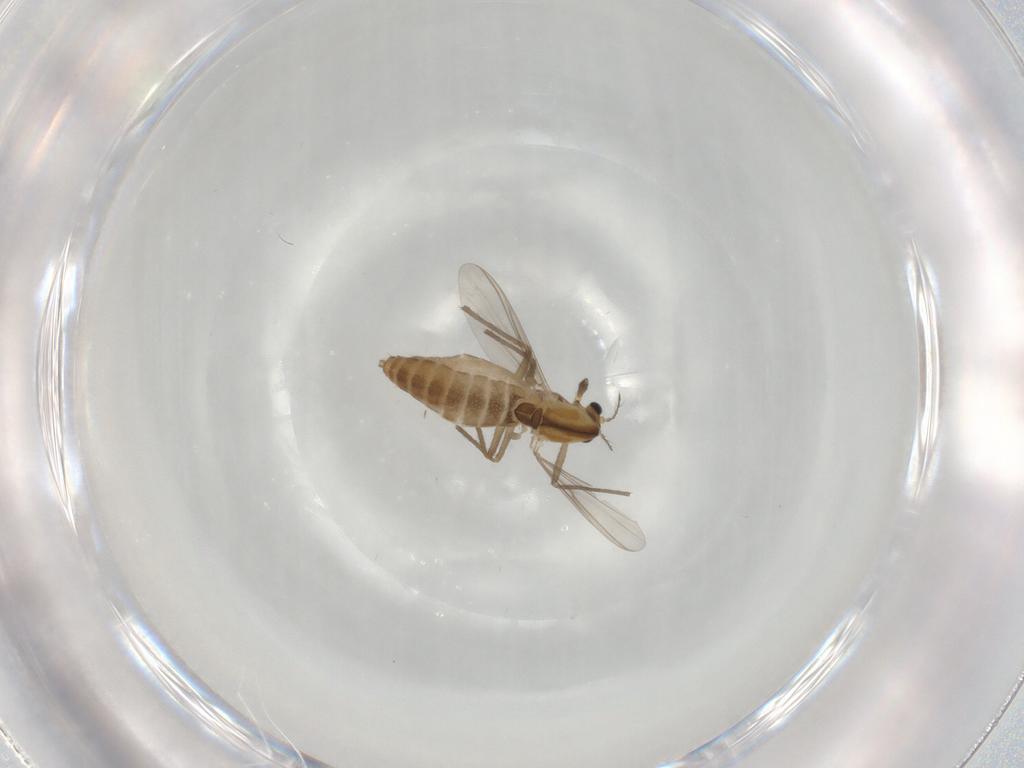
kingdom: Animalia
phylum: Arthropoda
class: Insecta
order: Diptera
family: Chironomidae
